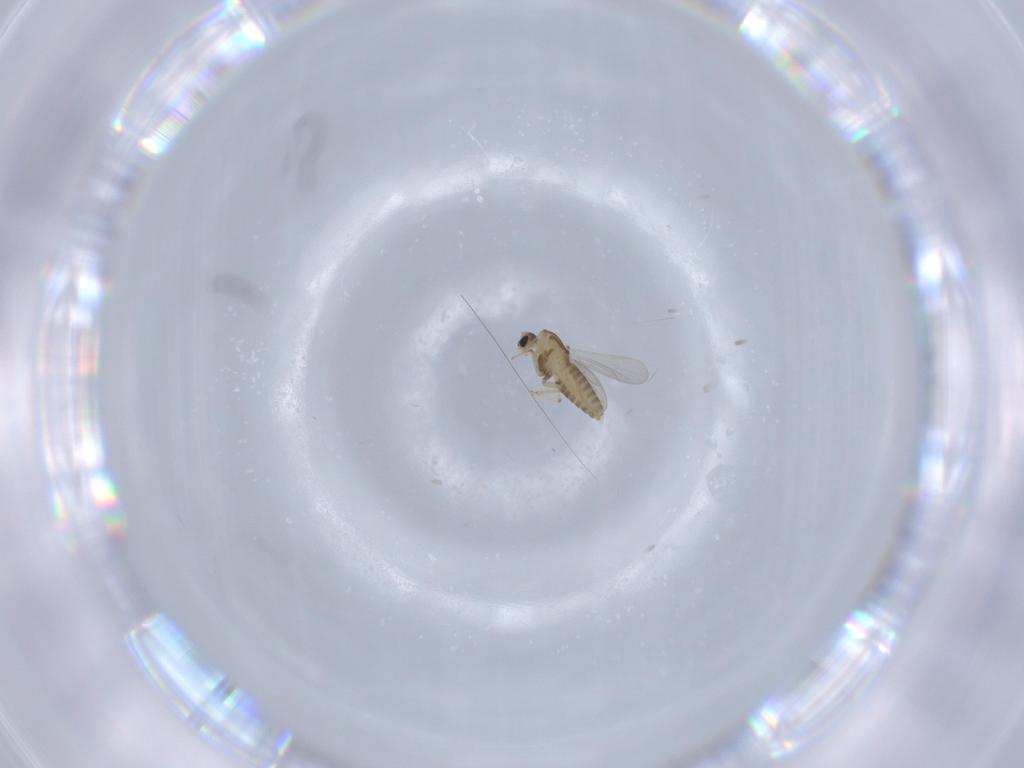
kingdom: Animalia
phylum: Arthropoda
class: Insecta
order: Diptera
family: Chironomidae
